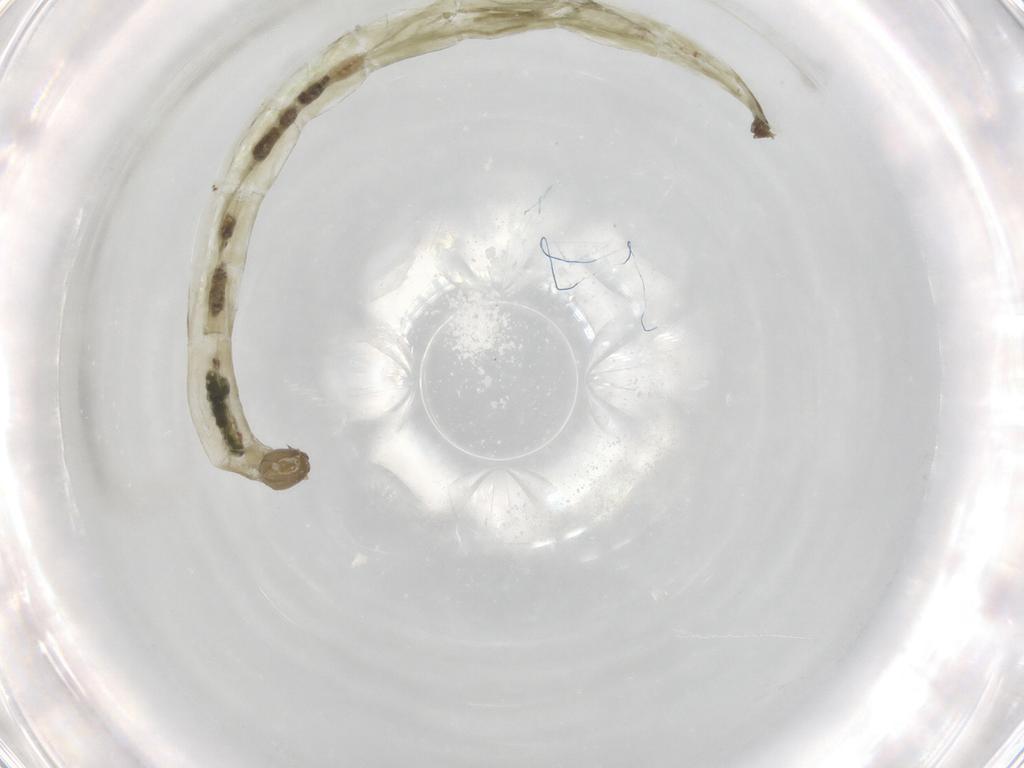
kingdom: Animalia
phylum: Arthropoda
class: Insecta
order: Diptera
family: Chironomidae
